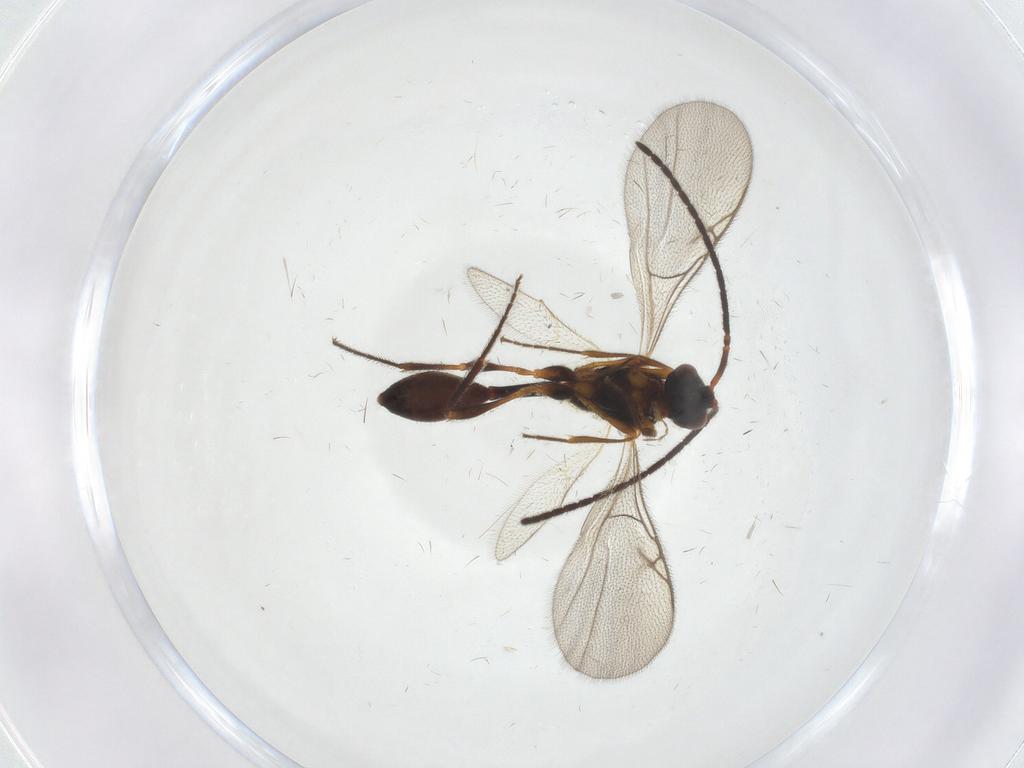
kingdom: Animalia
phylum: Arthropoda
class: Insecta
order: Hymenoptera
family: Diapriidae
